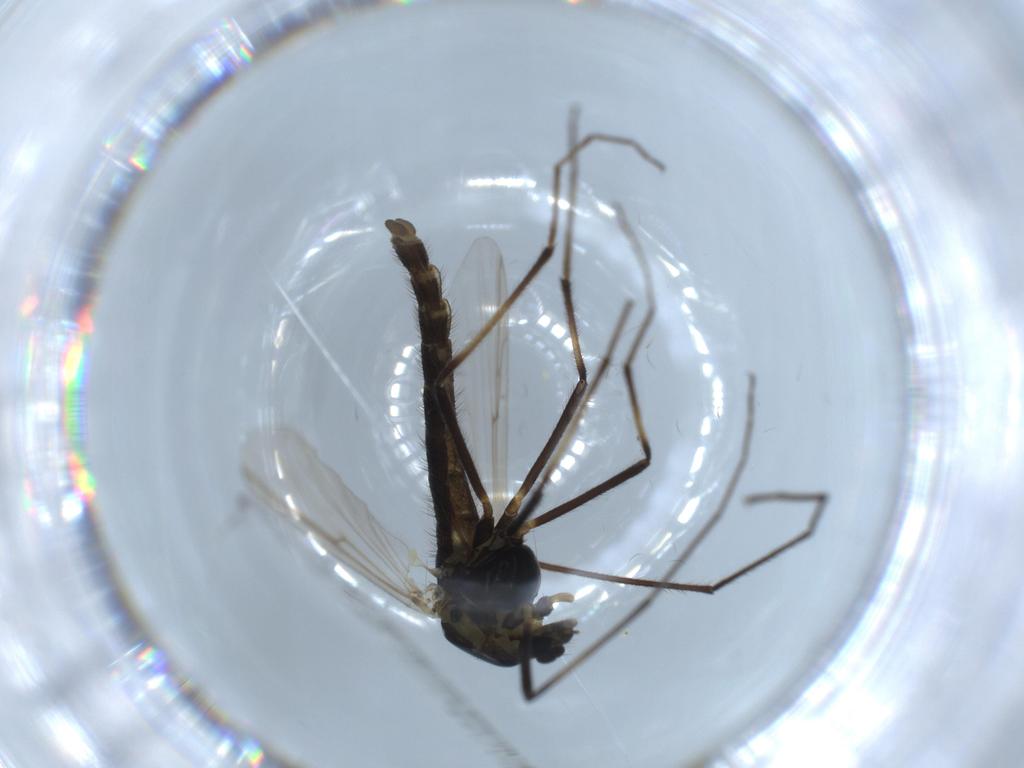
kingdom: Animalia
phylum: Arthropoda
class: Insecta
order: Diptera
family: Chironomidae
